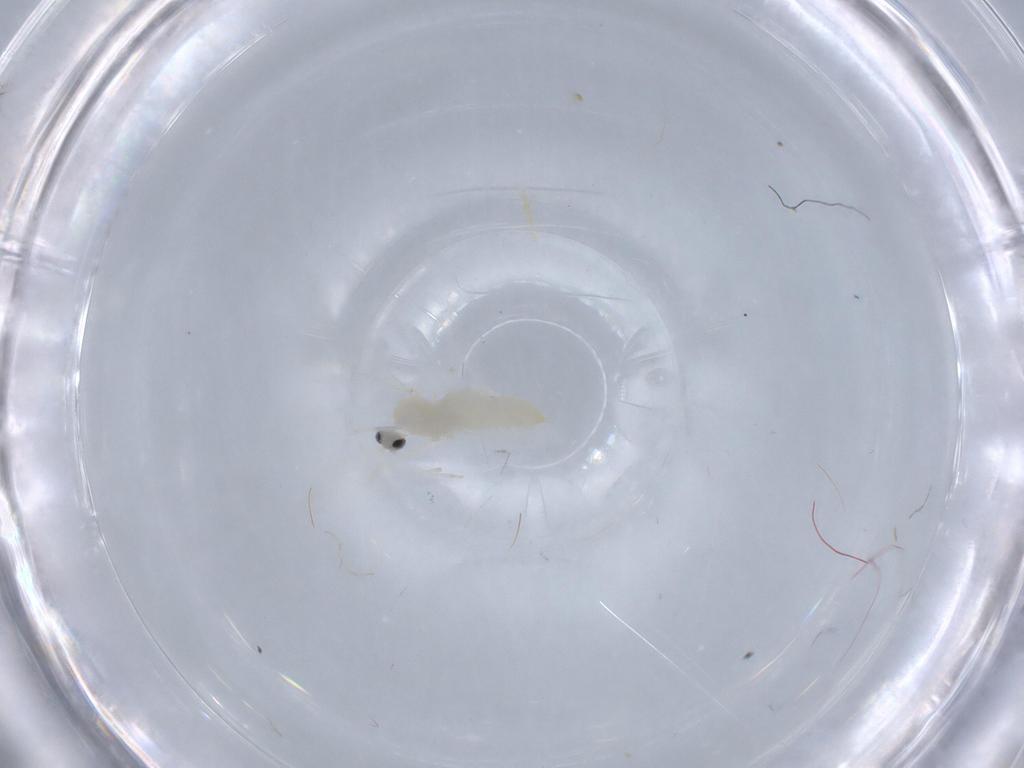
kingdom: Animalia
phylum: Arthropoda
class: Insecta
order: Diptera
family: Cecidomyiidae
